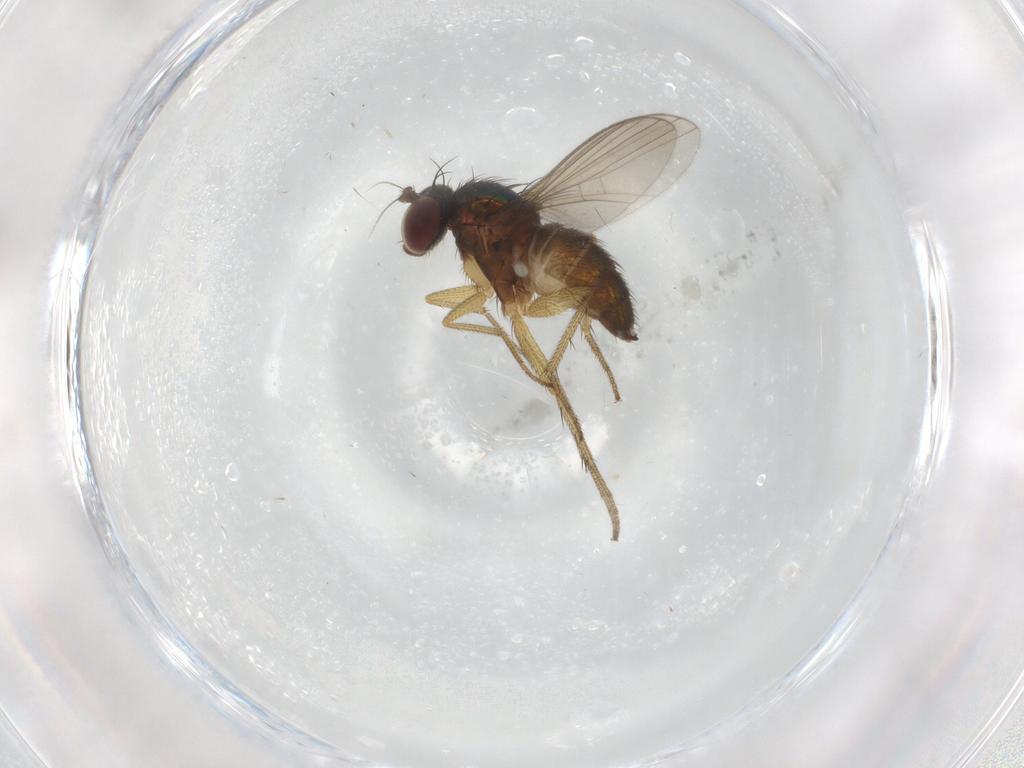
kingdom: Animalia
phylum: Arthropoda
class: Insecta
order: Diptera
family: Dolichopodidae
